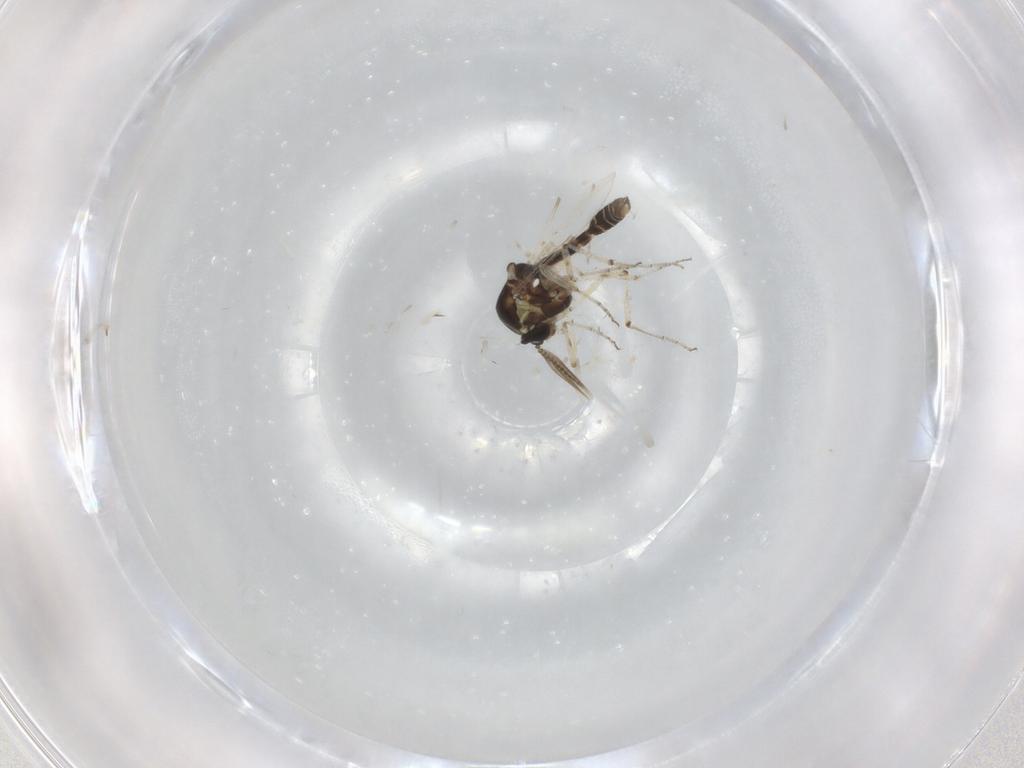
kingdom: Animalia
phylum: Arthropoda
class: Insecta
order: Diptera
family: Ceratopogonidae
